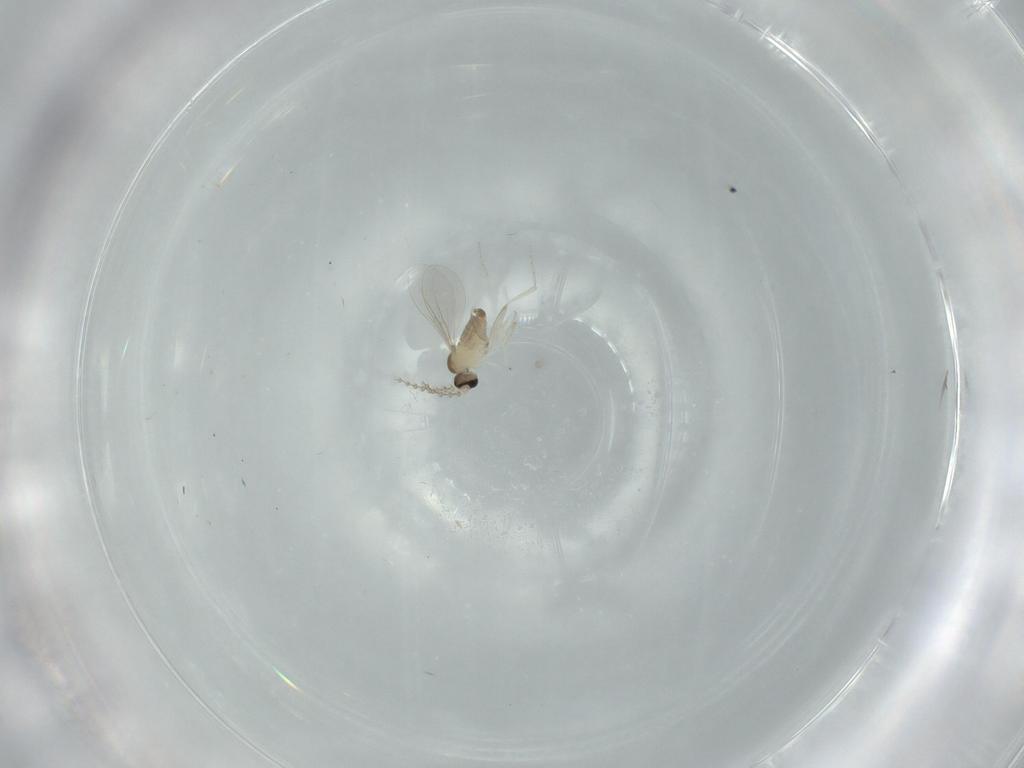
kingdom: Animalia
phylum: Arthropoda
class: Insecta
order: Diptera
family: Cecidomyiidae
